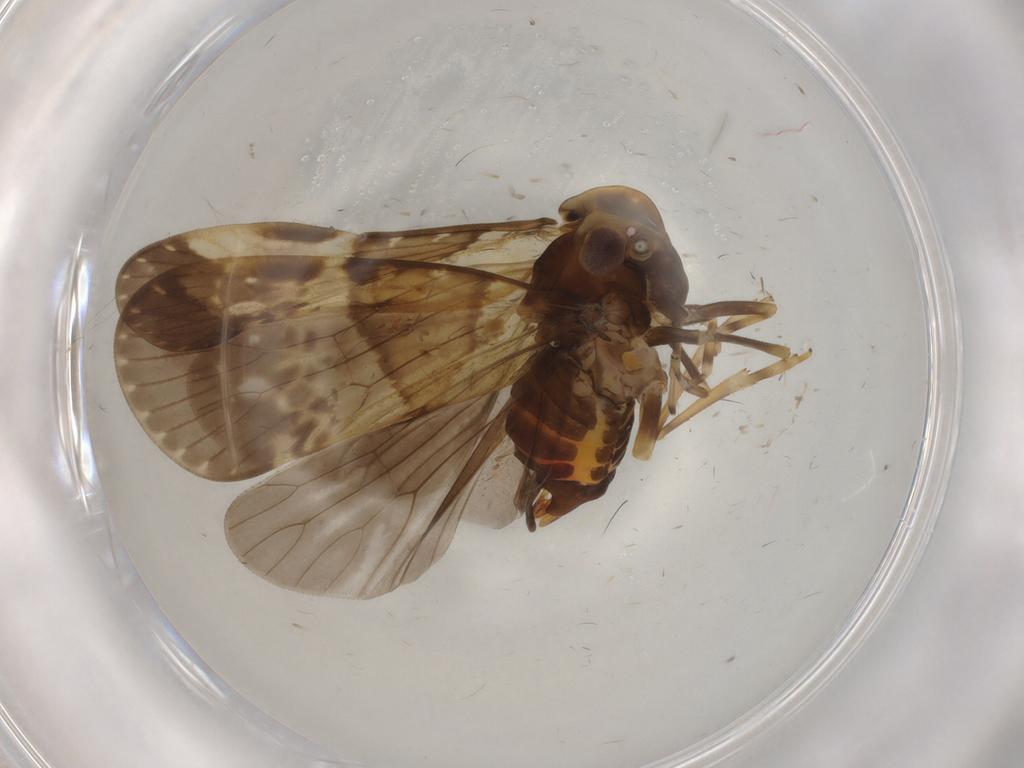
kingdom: Animalia
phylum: Arthropoda
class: Insecta
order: Hemiptera
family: Cixiidae
